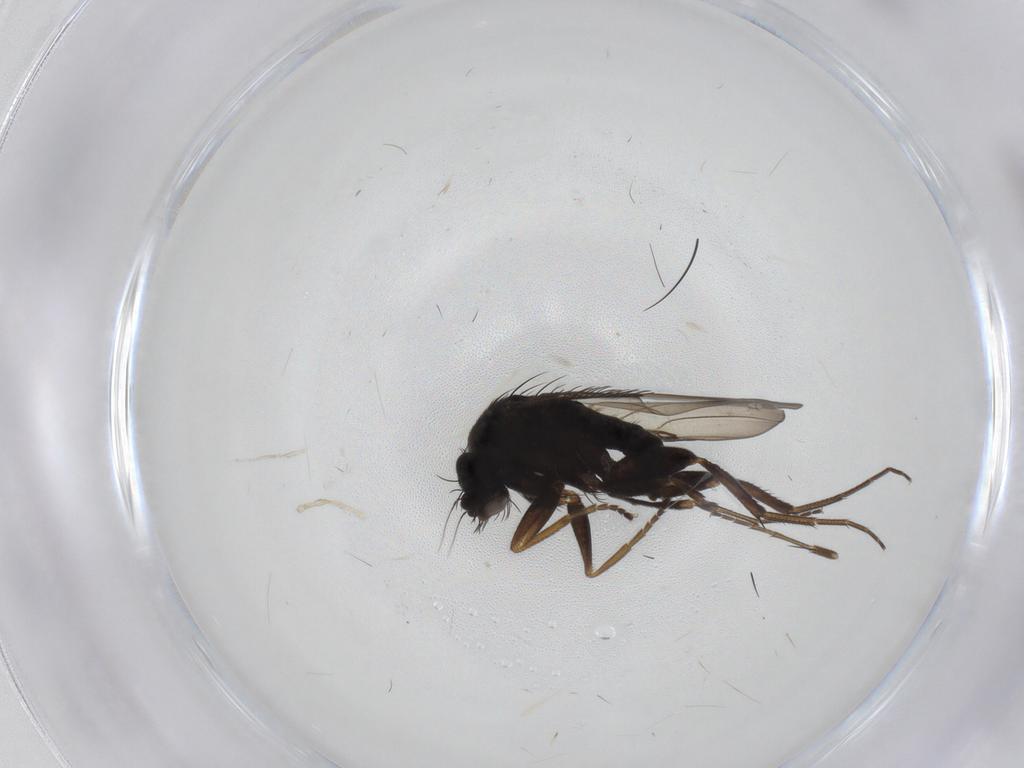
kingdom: Animalia
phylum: Arthropoda
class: Insecta
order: Diptera
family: Phoridae
